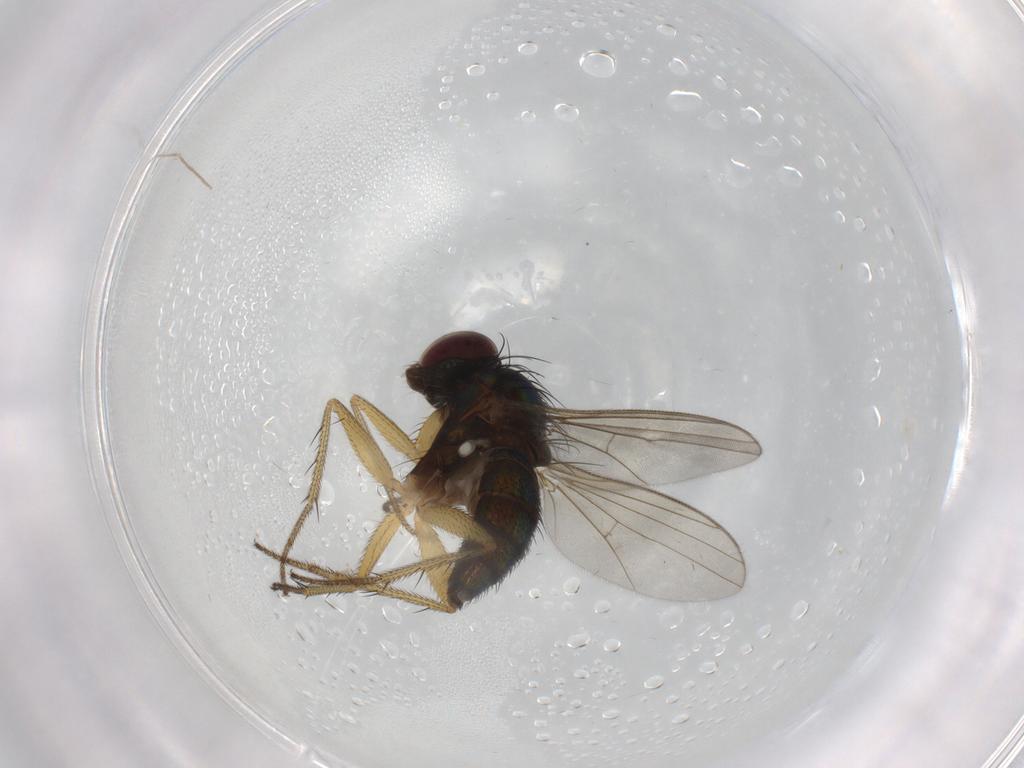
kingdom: Animalia
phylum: Arthropoda
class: Insecta
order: Diptera
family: Dolichopodidae
